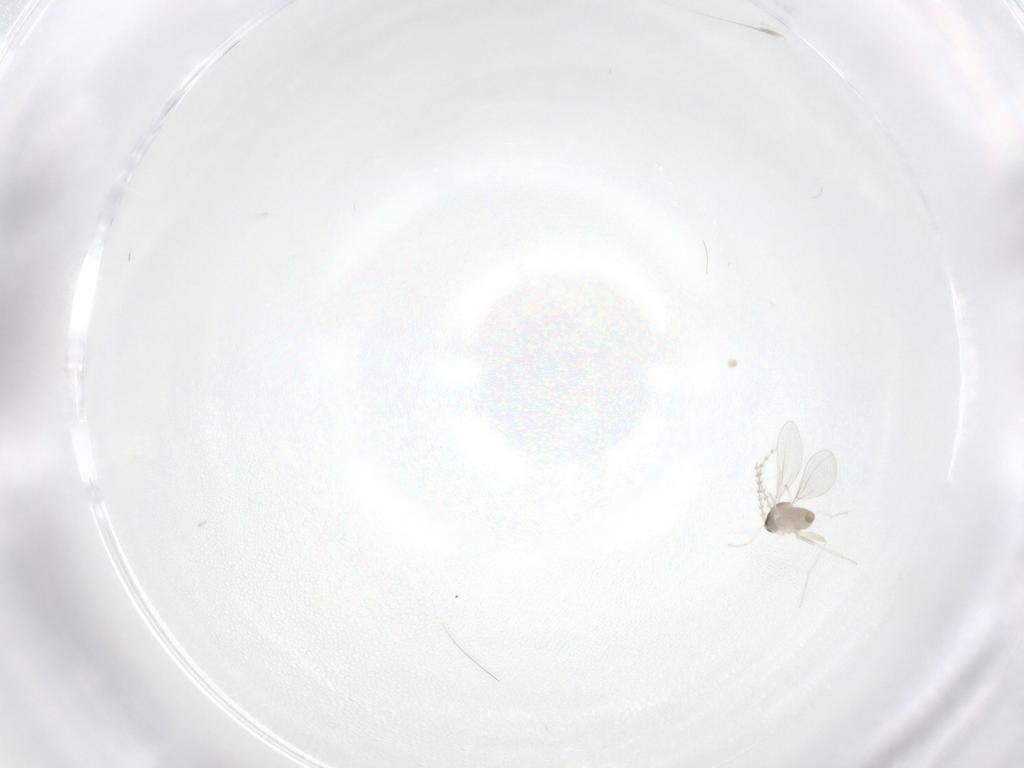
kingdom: Animalia
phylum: Arthropoda
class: Insecta
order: Diptera
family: Cecidomyiidae
